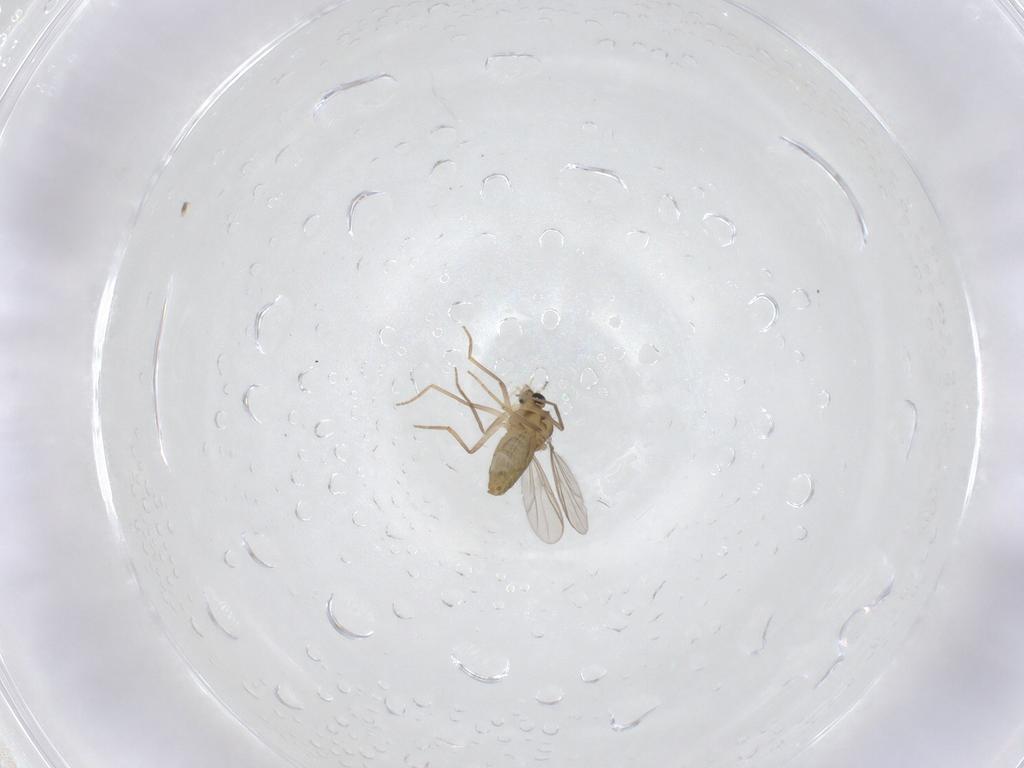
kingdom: Animalia
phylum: Arthropoda
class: Insecta
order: Diptera
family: Chironomidae
